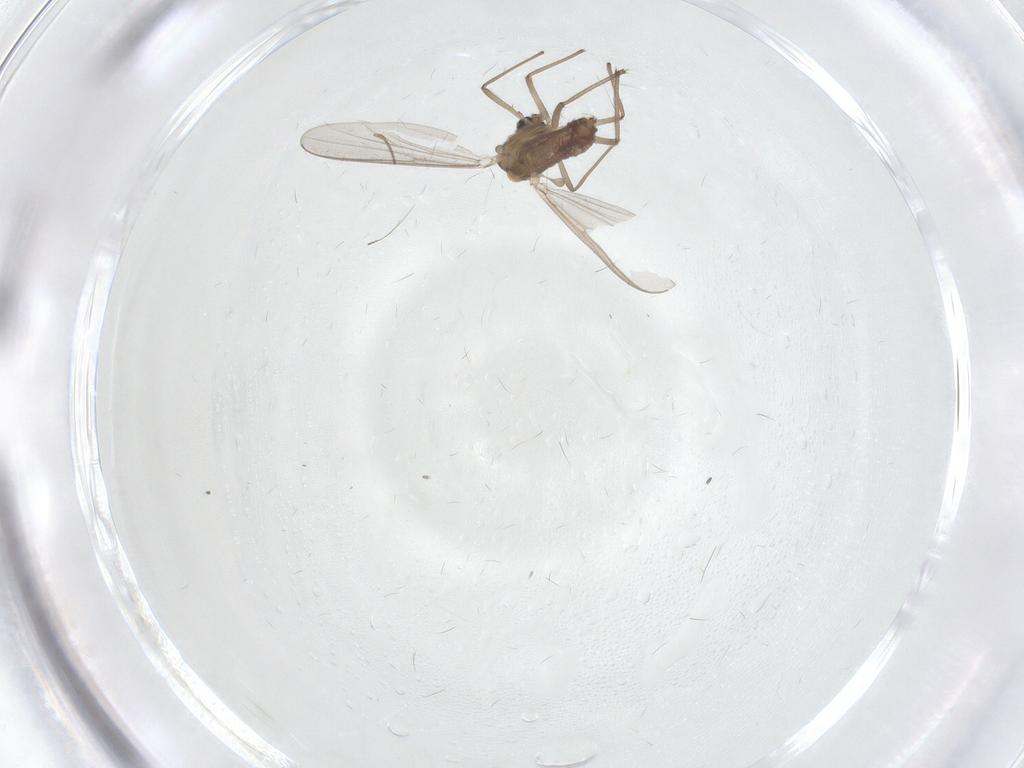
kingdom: Animalia
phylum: Arthropoda
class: Insecta
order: Diptera
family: Chironomidae
